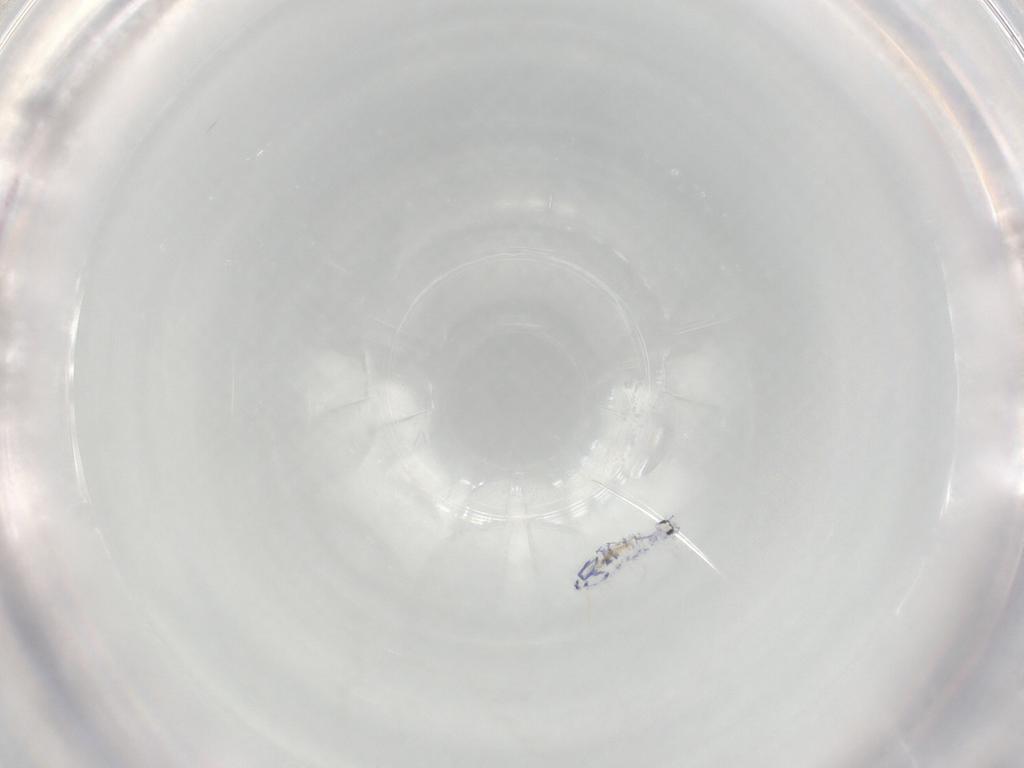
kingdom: Animalia
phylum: Arthropoda
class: Collembola
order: Entomobryomorpha
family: Entomobryidae
